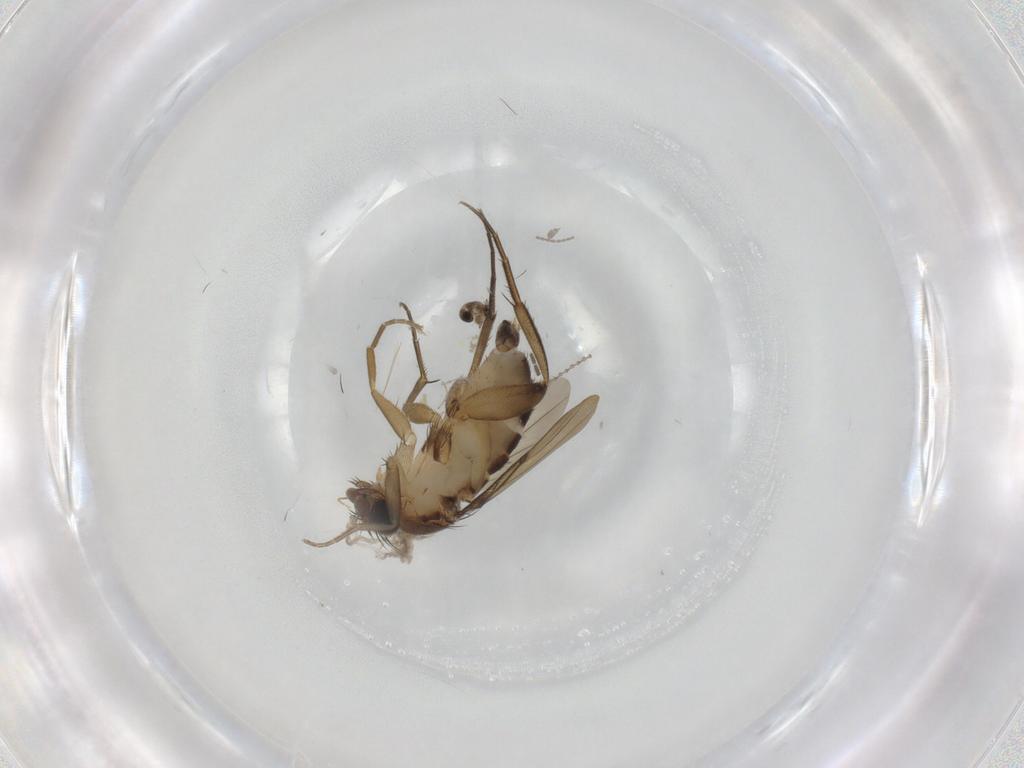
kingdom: Animalia
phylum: Arthropoda
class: Insecta
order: Diptera
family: Phoridae
